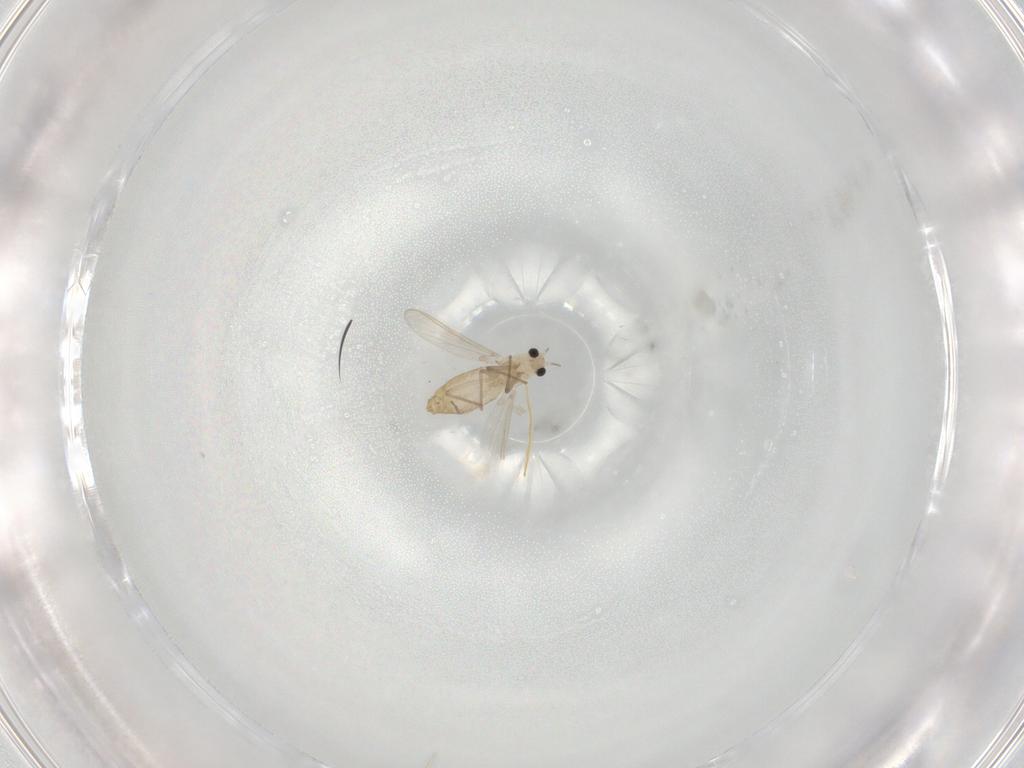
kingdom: Animalia
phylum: Arthropoda
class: Insecta
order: Diptera
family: Chironomidae
